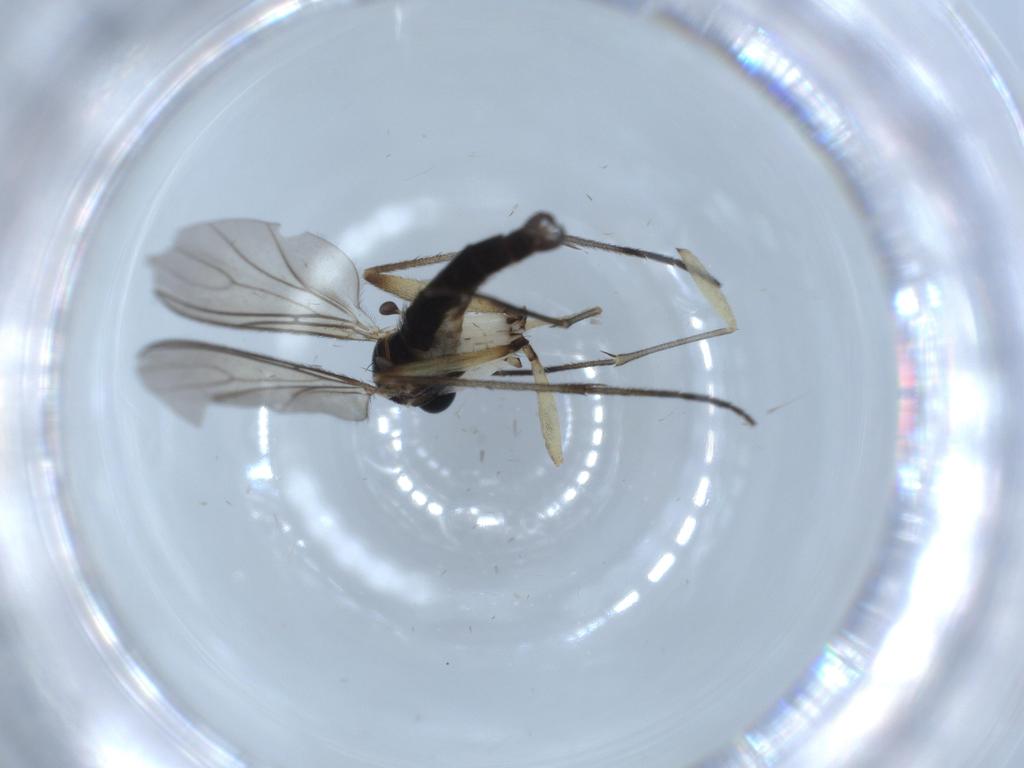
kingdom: Animalia
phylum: Arthropoda
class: Insecta
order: Diptera
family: Sciaridae
